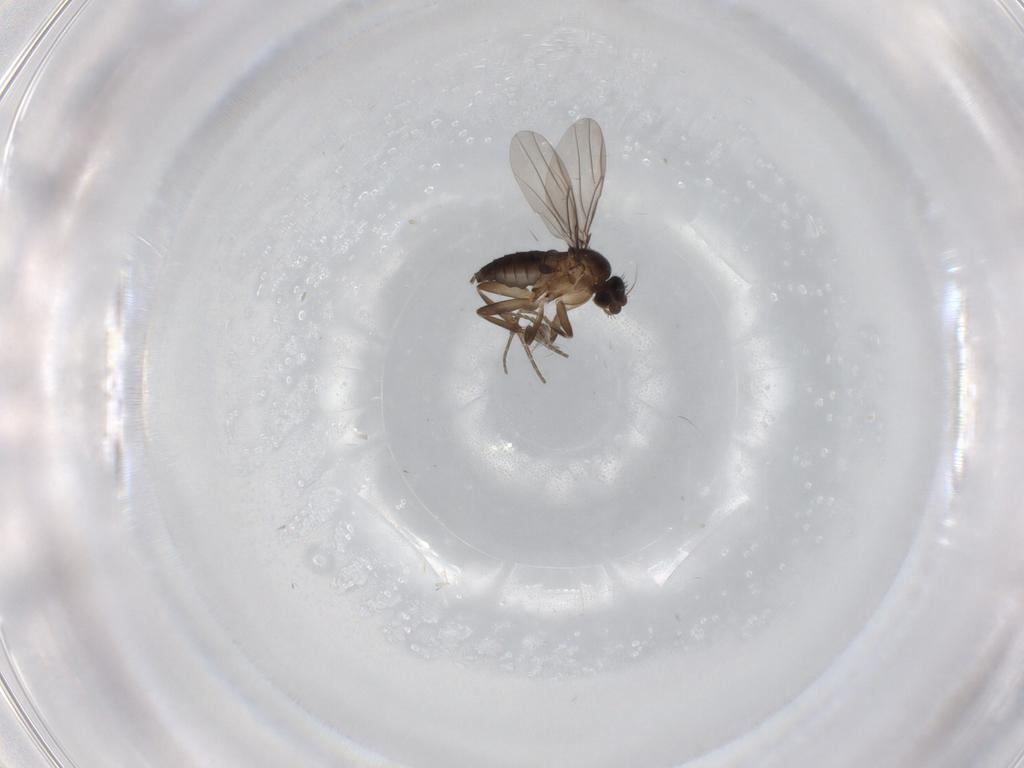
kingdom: Animalia
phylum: Arthropoda
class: Insecta
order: Diptera
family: Phoridae
